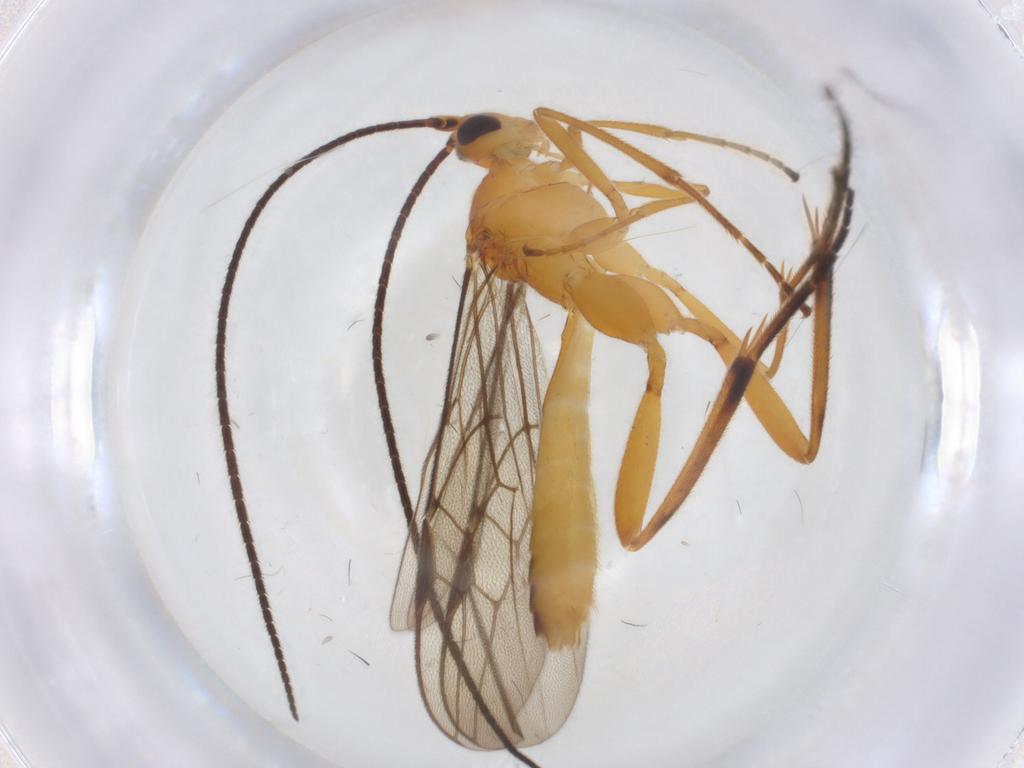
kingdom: Animalia
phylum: Arthropoda
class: Insecta
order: Hymenoptera
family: Braconidae
